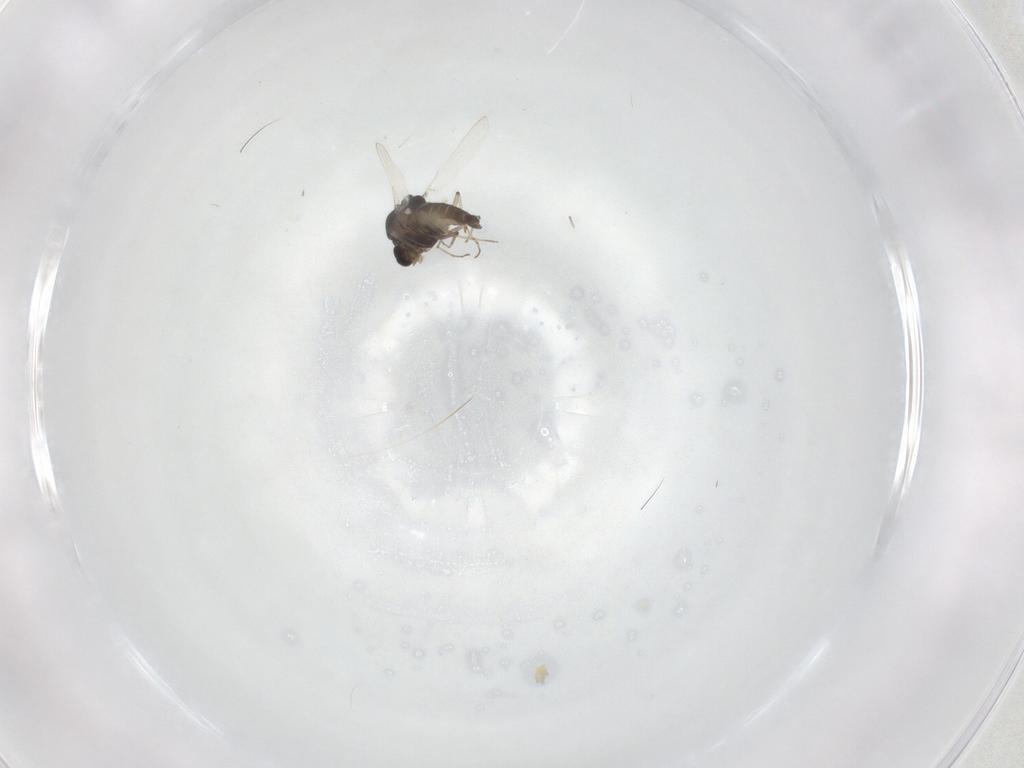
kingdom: Animalia
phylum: Arthropoda
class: Insecta
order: Diptera
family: Chironomidae
